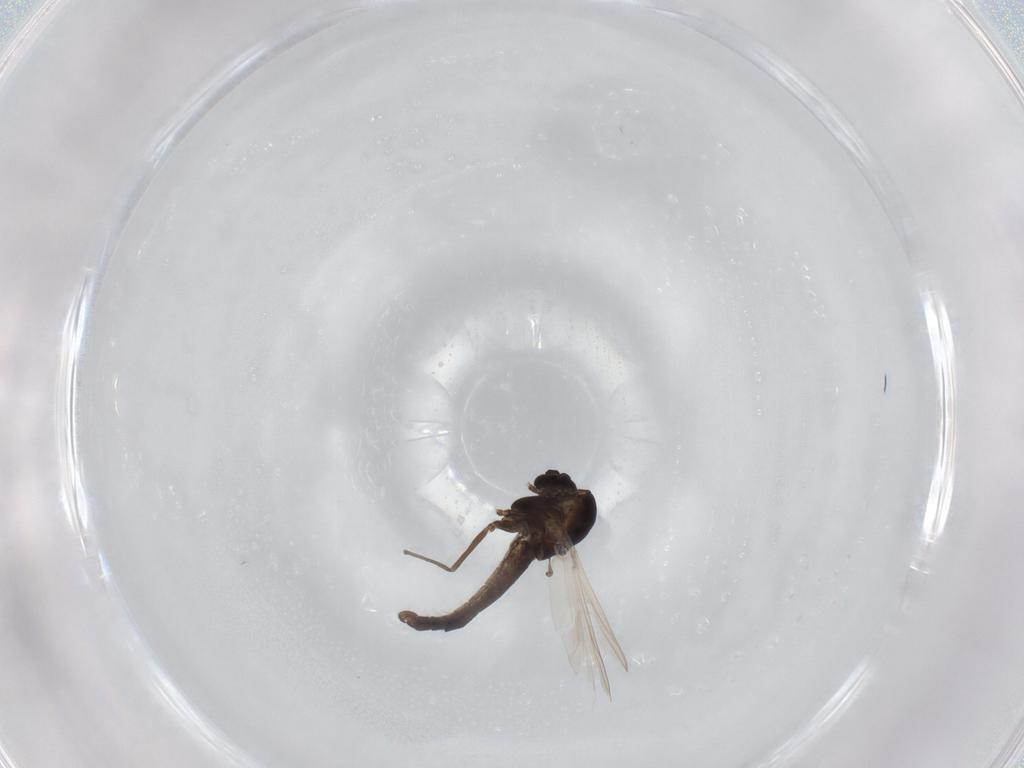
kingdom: Animalia
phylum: Arthropoda
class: Insecta
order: Diptera
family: Chironomidae
